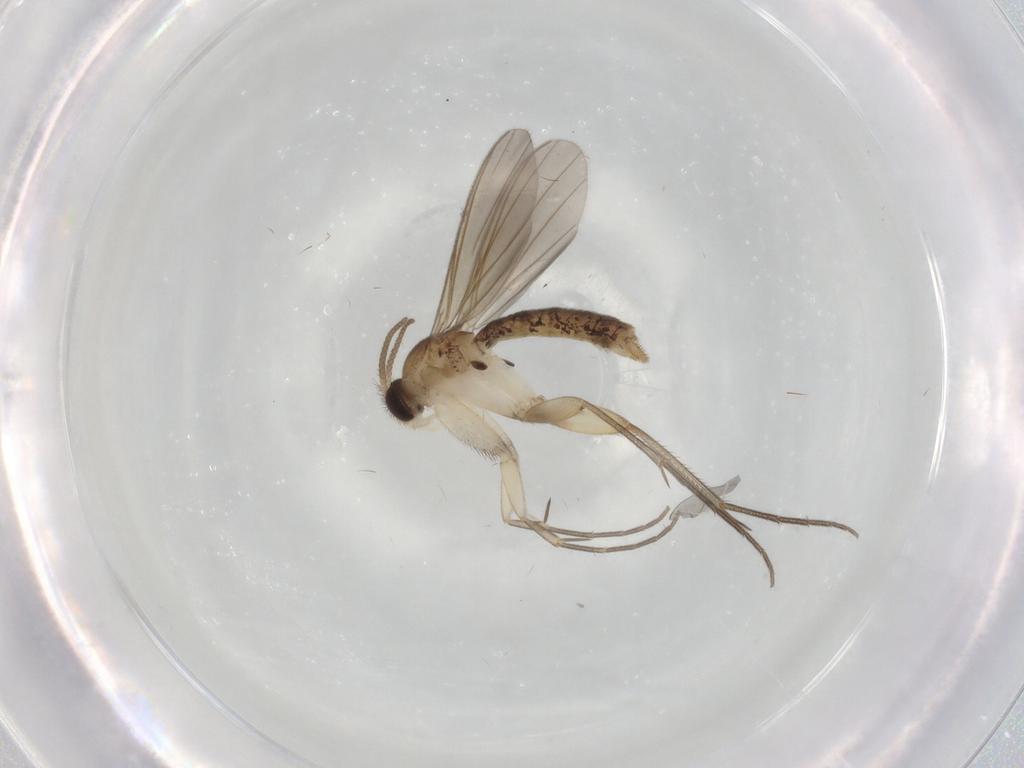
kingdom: Animalia
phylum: Arthropoda
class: Insecta
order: Diptera
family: Mycetophilidae
